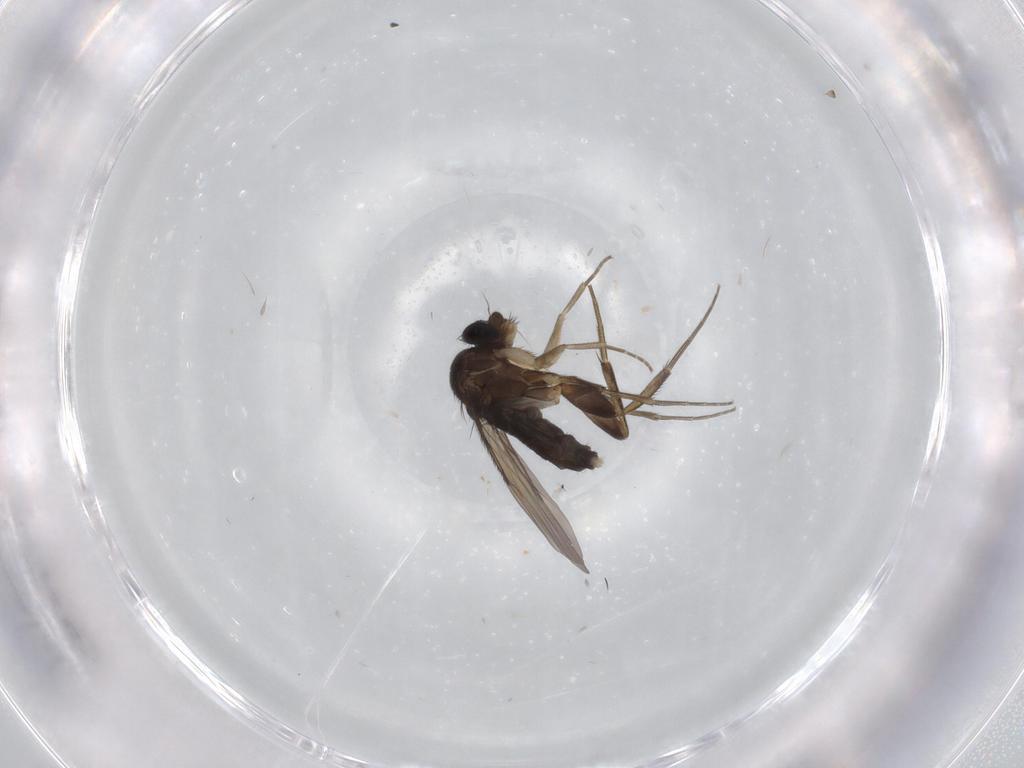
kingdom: Animalia
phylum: Arthropoda
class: Insecta
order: Diptera
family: Phoridae
